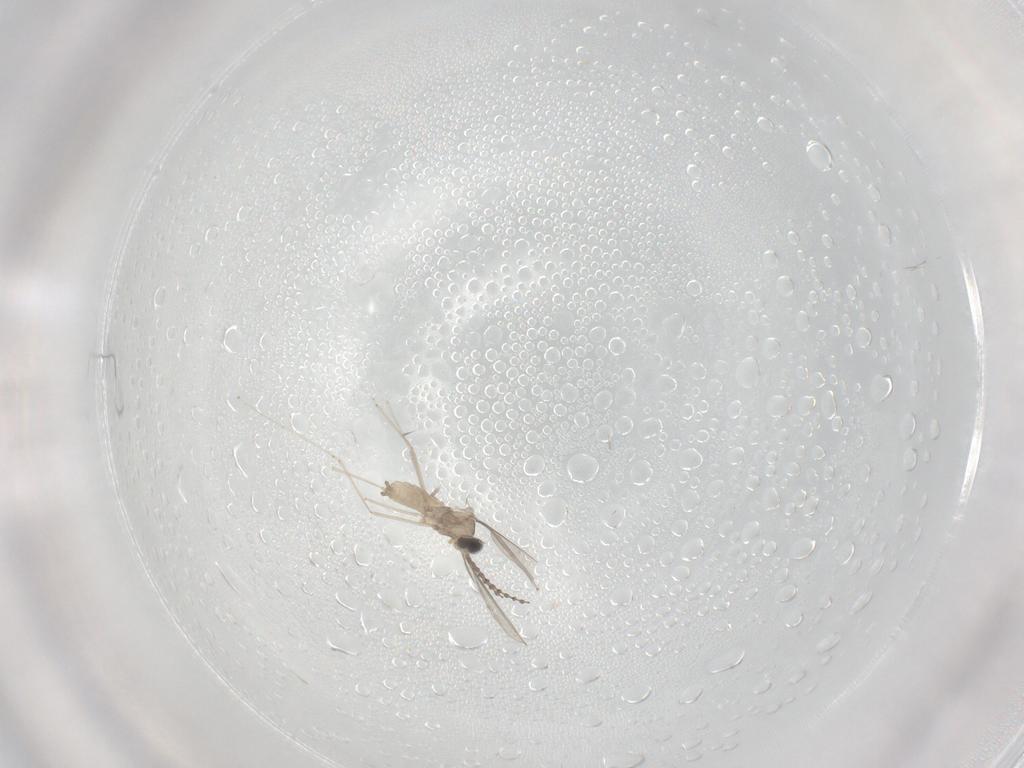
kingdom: Animalia
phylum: Arthropoda
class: Insecta
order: Diptera
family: Cecidomyiidae
